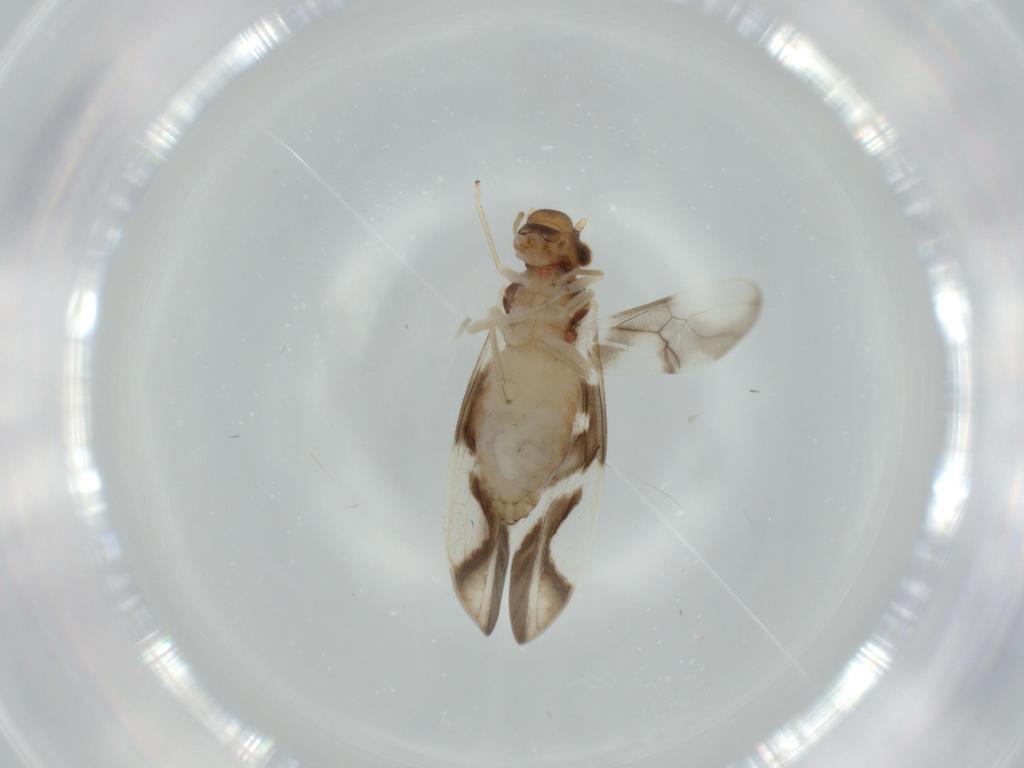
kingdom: Animalia
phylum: Arthropoda
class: Insecta
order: Psocodea
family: Caeciliusidae
